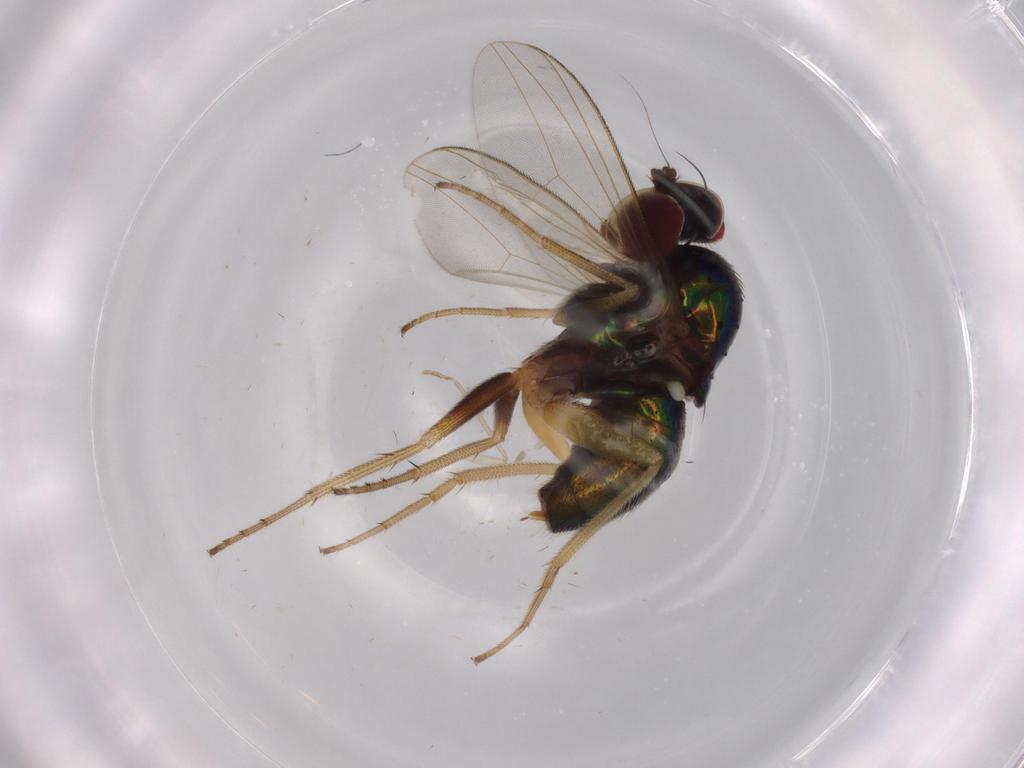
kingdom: Animalia
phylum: Arthropoda
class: Insecta
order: Diptera
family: Dolichopodidae
